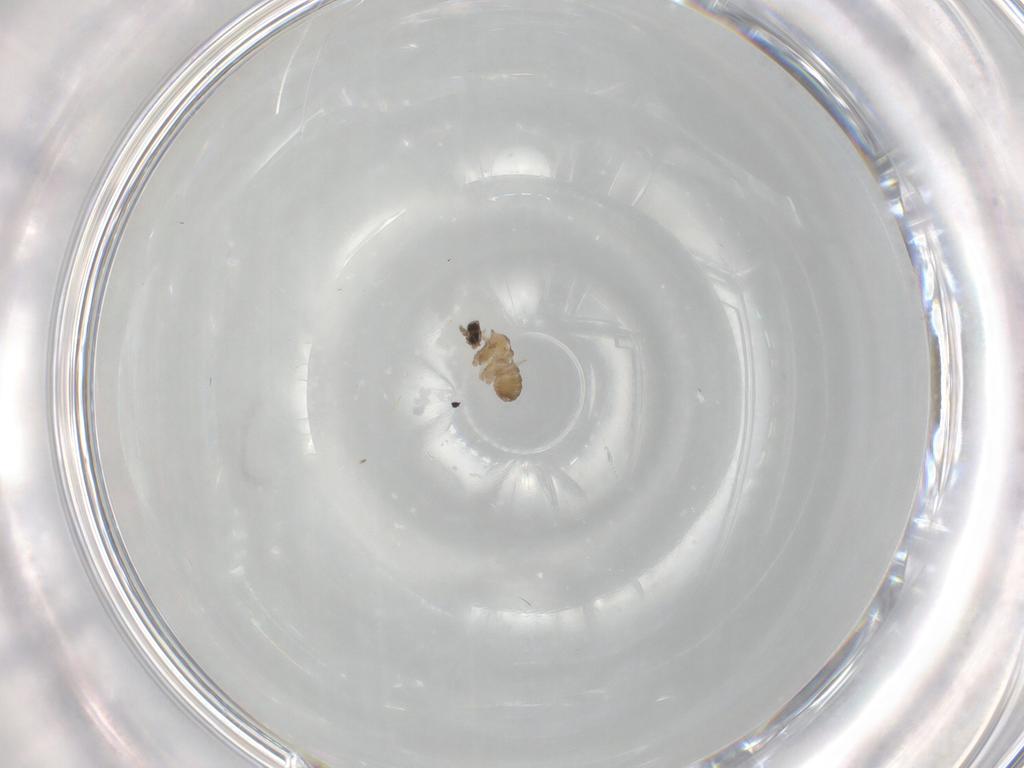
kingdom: Animalia
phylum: Arthropoda
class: Insecta
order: Diptera
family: Cecidomyiidae
